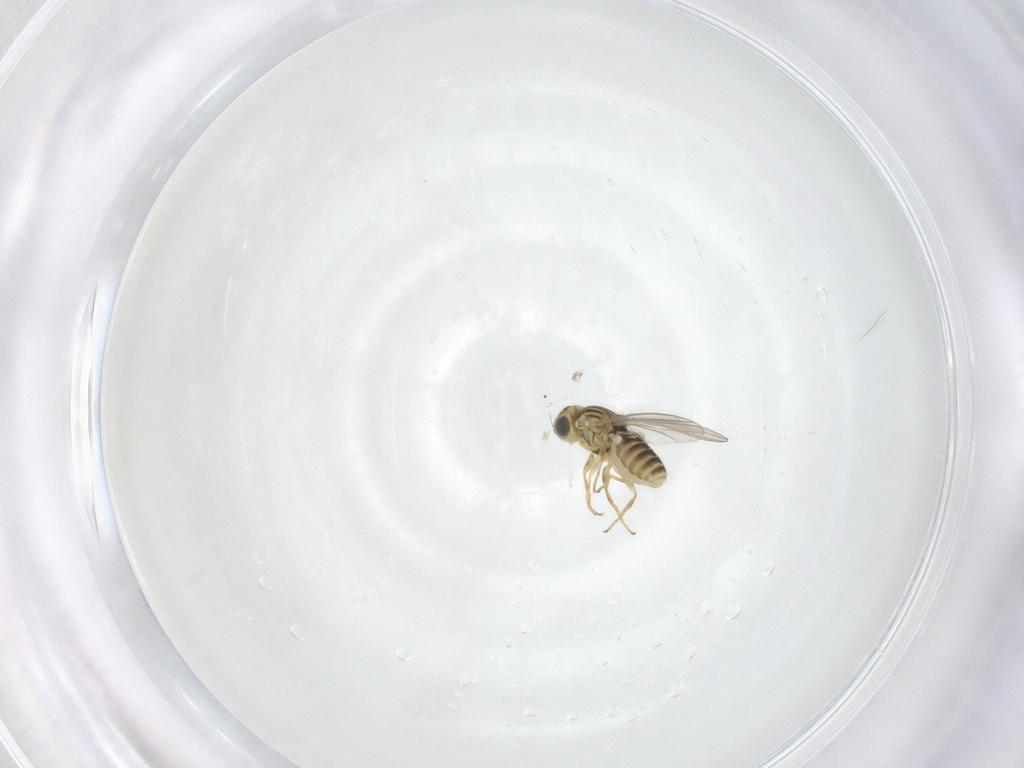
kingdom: Animalia
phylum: Arthropoda
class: Insecta
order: Diptera
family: Chyromyidae
